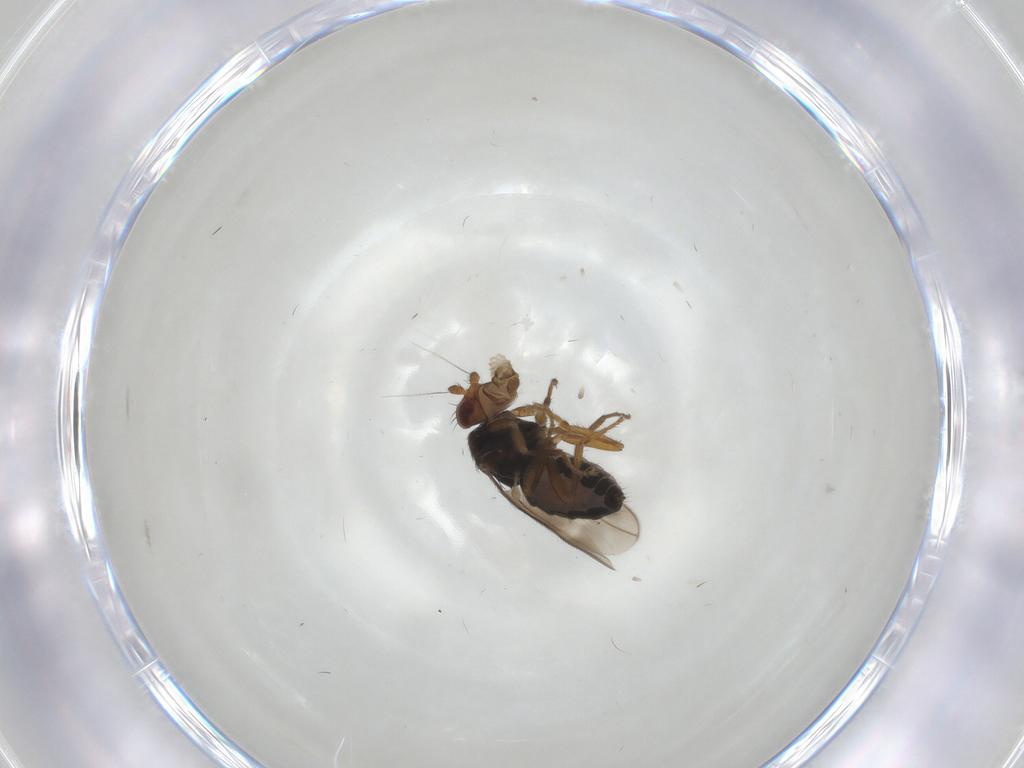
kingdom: Animalia
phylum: Arthropoda
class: Insecta
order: Diptera
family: Sphaeroceridae
